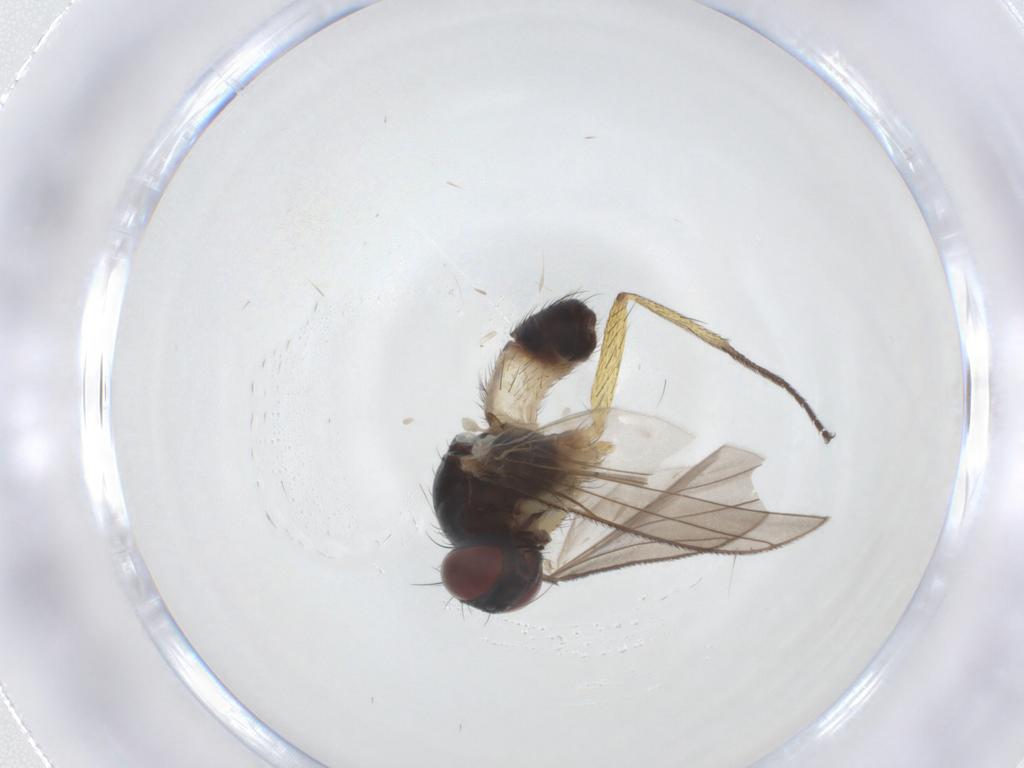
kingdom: Animalia
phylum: Arthropoda
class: Insecta
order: Diptera
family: Muscidae
